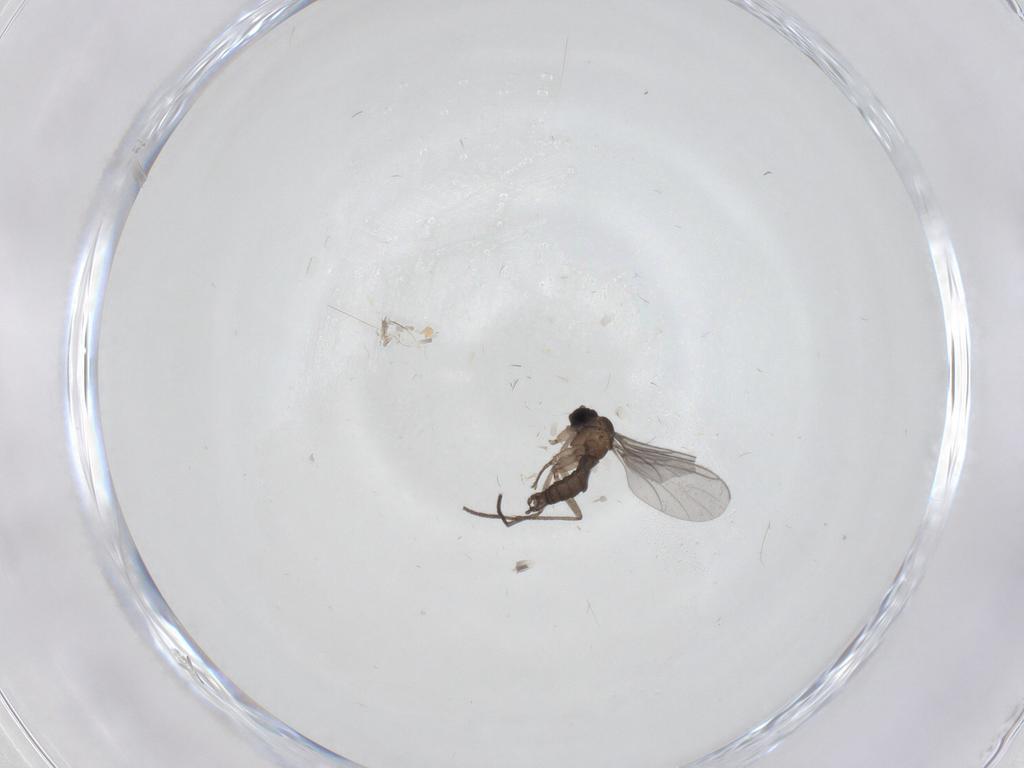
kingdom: Animalia
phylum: Arthropoda
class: Insecta
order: Diptera
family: Sciaridae
